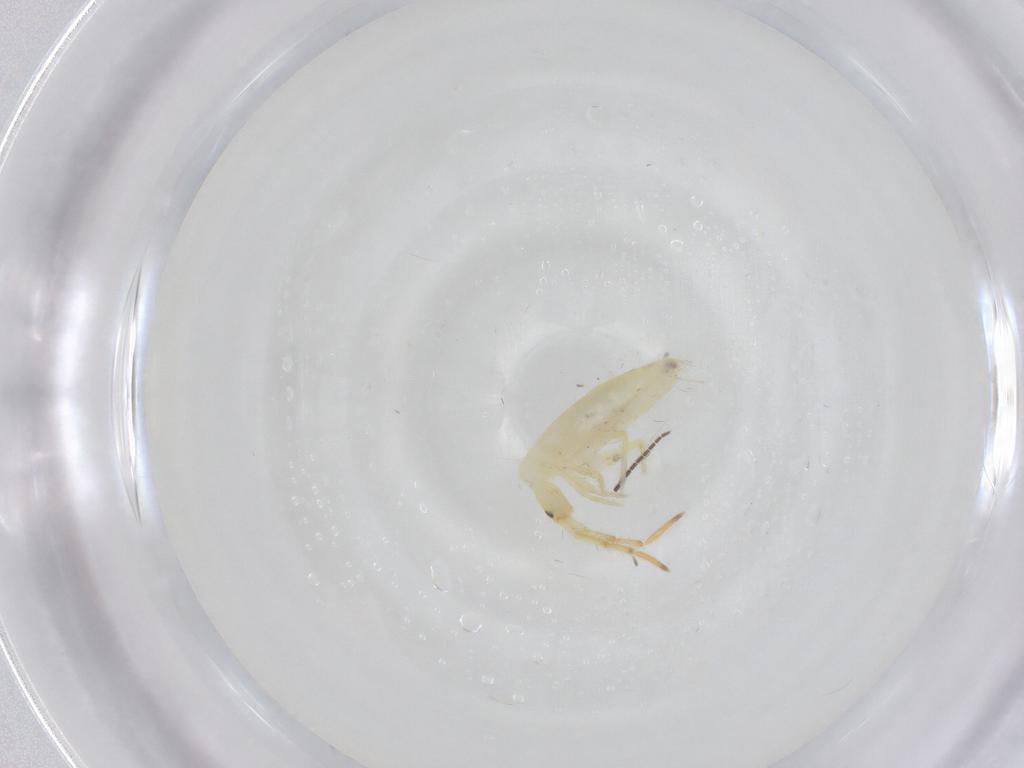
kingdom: Animalia
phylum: Arthropoda
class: Collembola
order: Entomobryomorpha
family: Entomobryidae
